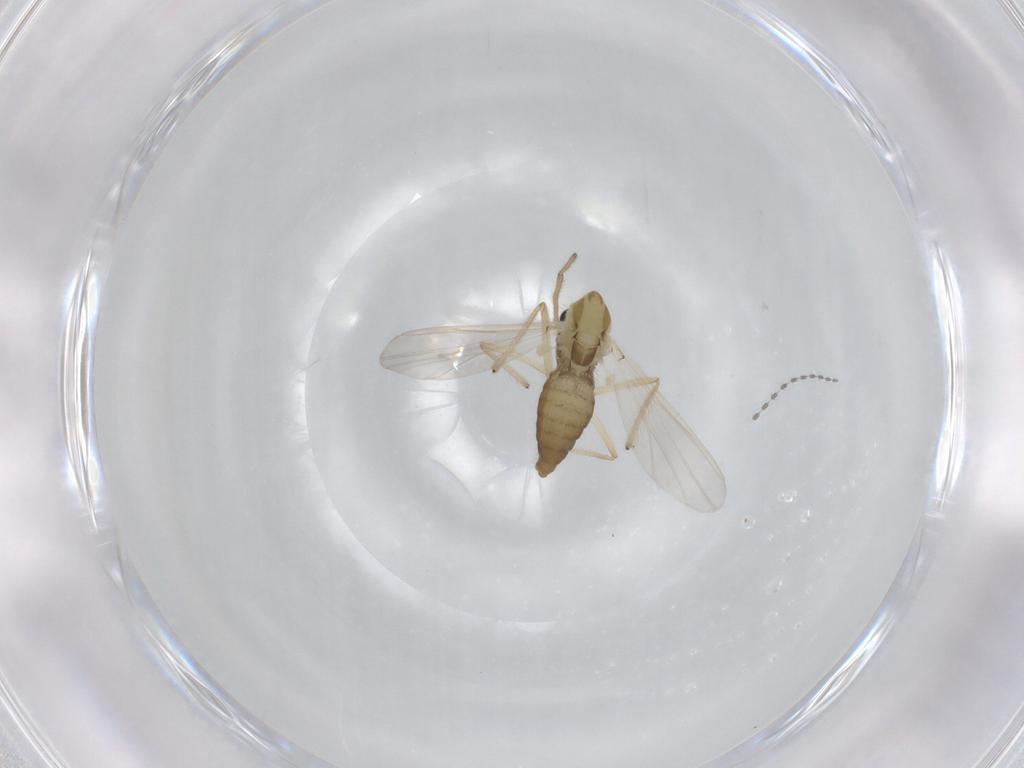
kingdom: Animalia
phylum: Arthropoda
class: Insecta
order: Diptera
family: Chironomidae
